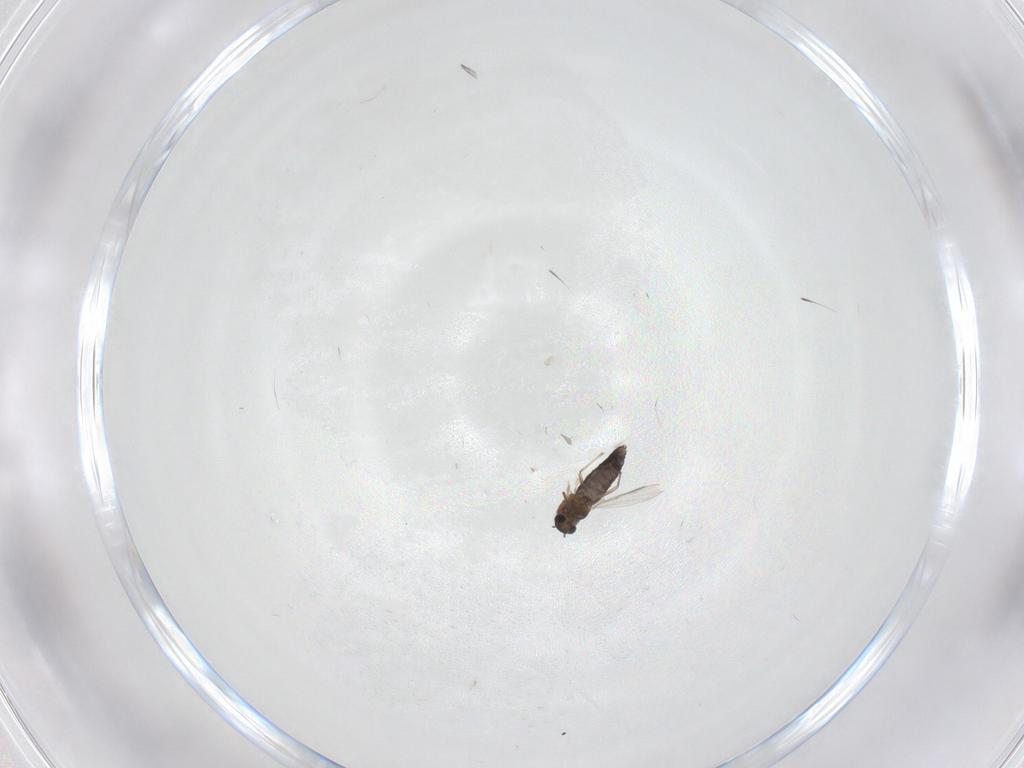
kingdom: Animalia
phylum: Arthropoda
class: Insecta
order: Diptera
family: Chironomidae
